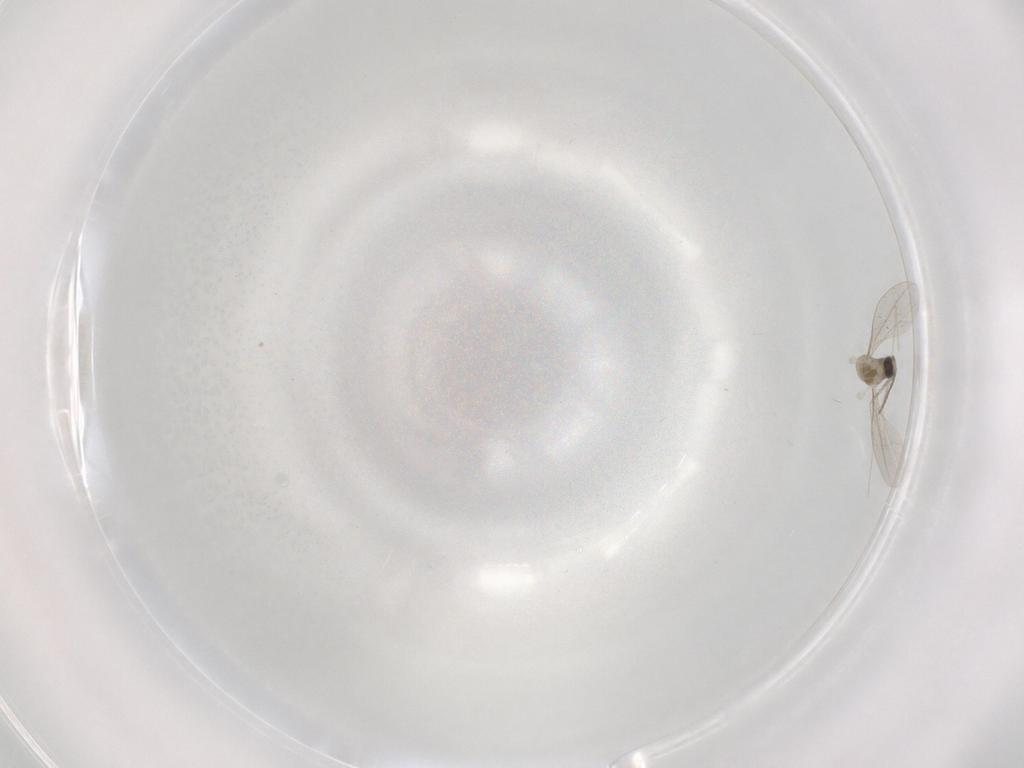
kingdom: Animalia
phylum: Arthropoda
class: Insecta
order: Diptera
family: Cecidomyiidae
